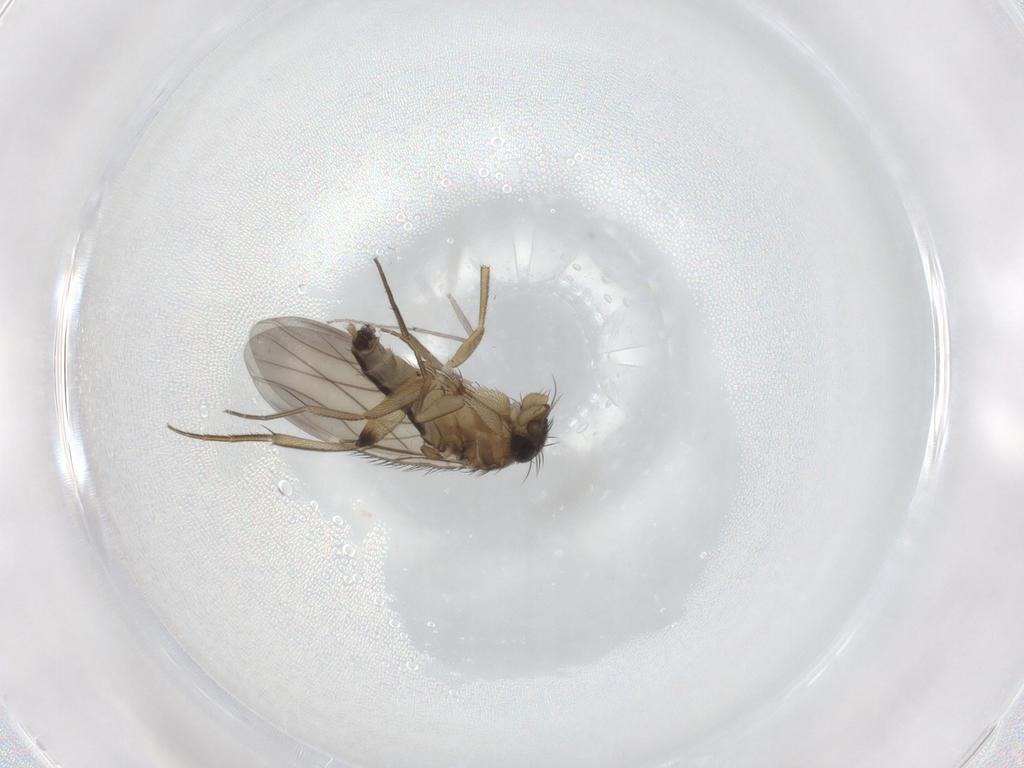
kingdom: Animalia
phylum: Arthropoda
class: Insecta
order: Diptera
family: Phoridae
